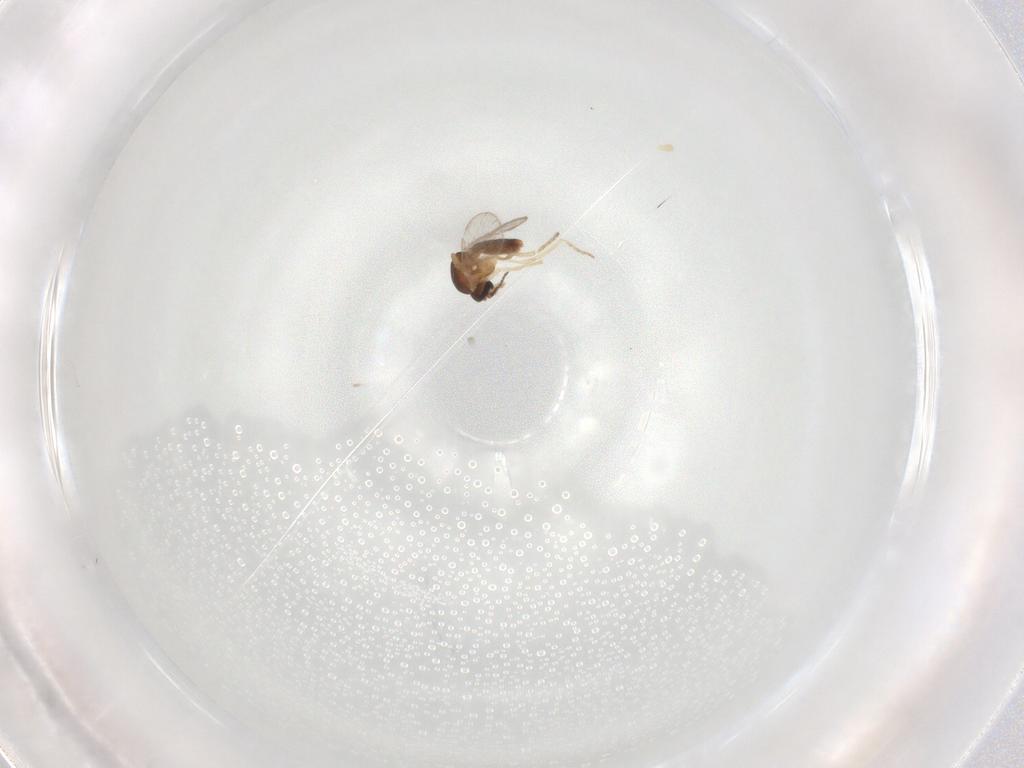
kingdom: Animalia
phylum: Arthropoda
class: Insecta
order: Diptera
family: Ceratopogonidae
